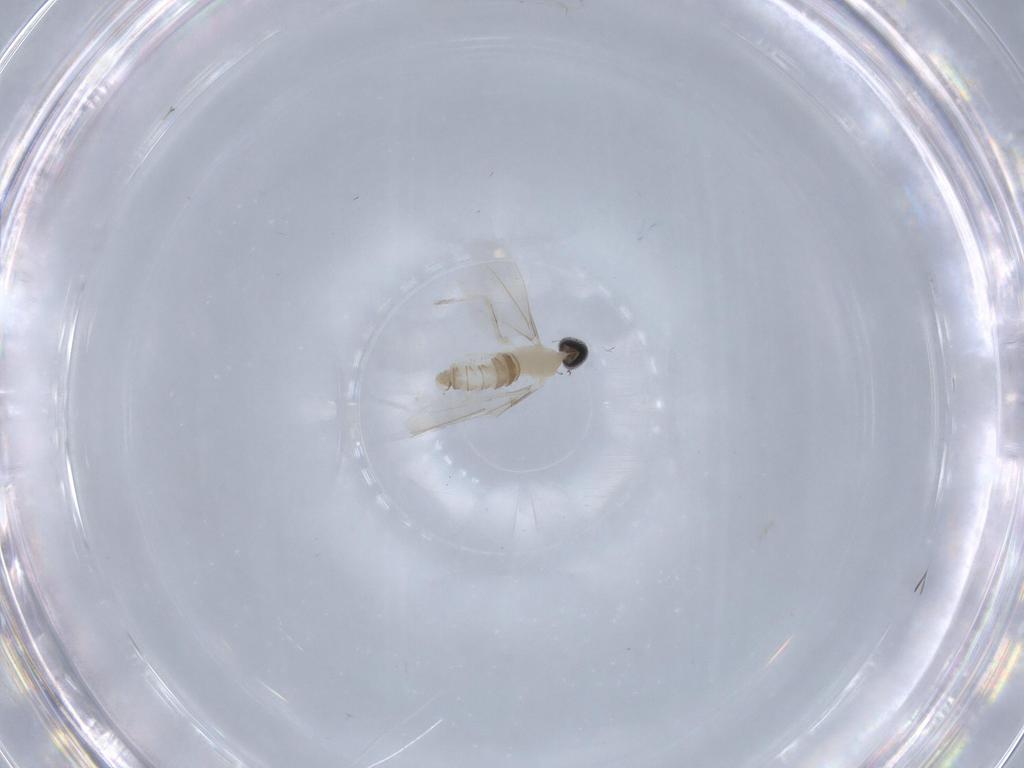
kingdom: Animalia
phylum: Arthropoda
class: Insecta
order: Diptera
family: Cecidomyiidae
